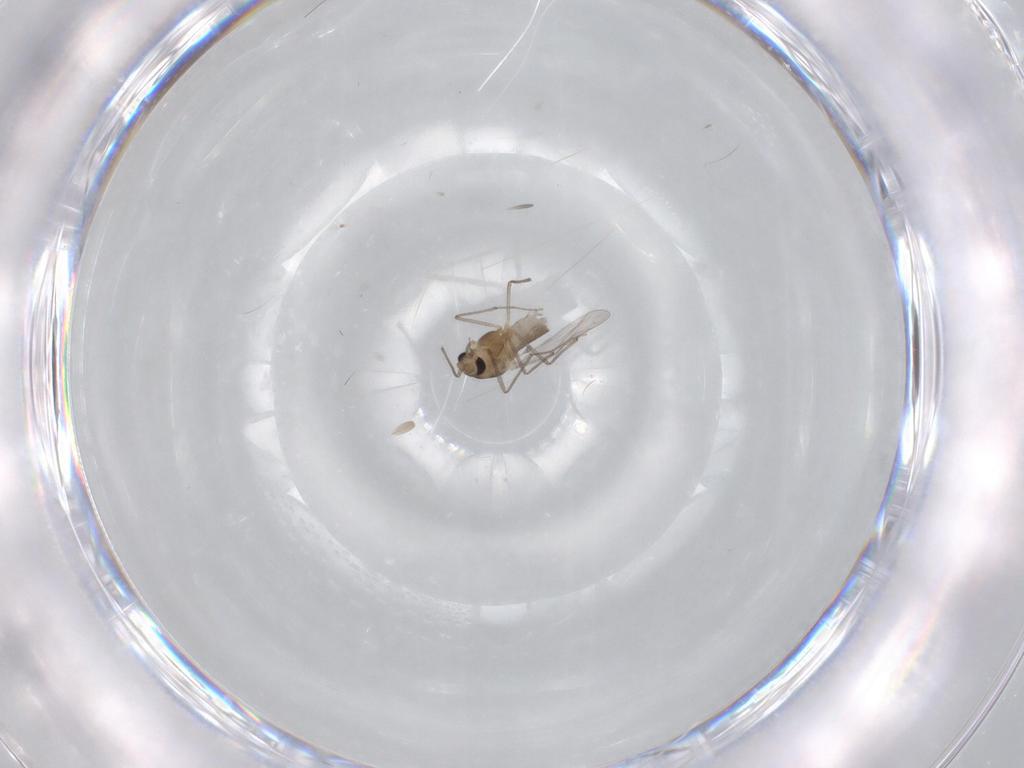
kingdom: Animalia
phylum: Arthropoda
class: Insecta
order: Diptera
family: Chironomidae
